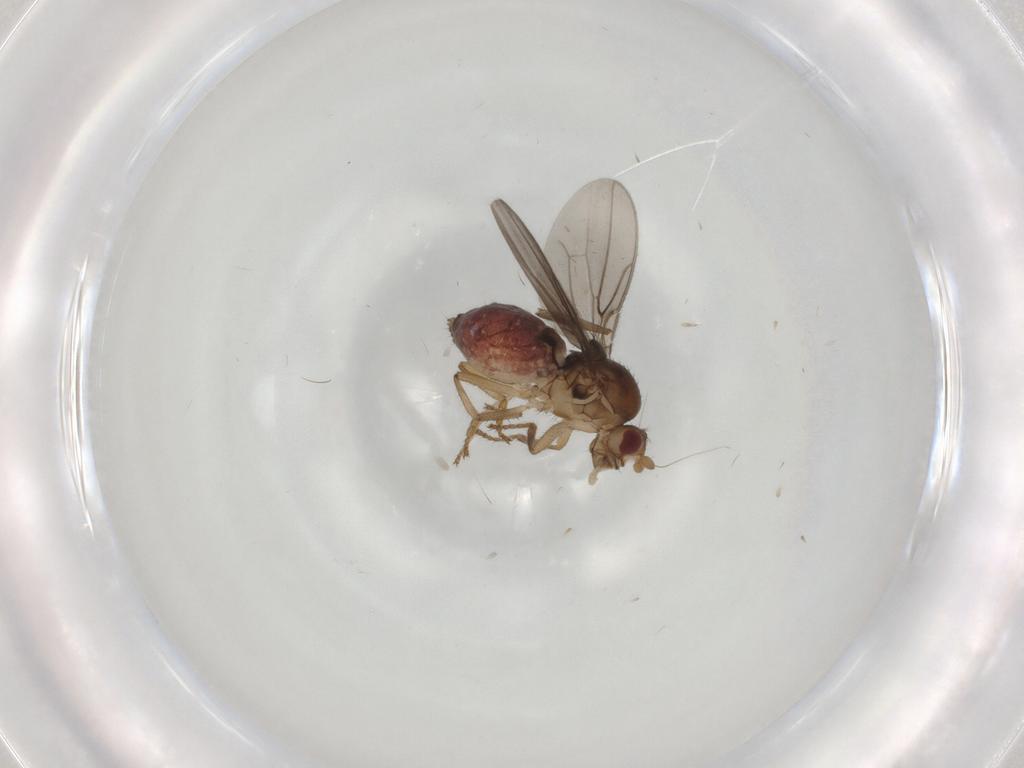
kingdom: Animalia
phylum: Arthropoda
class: Insecta
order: Diptera
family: Sphaeroceridae
